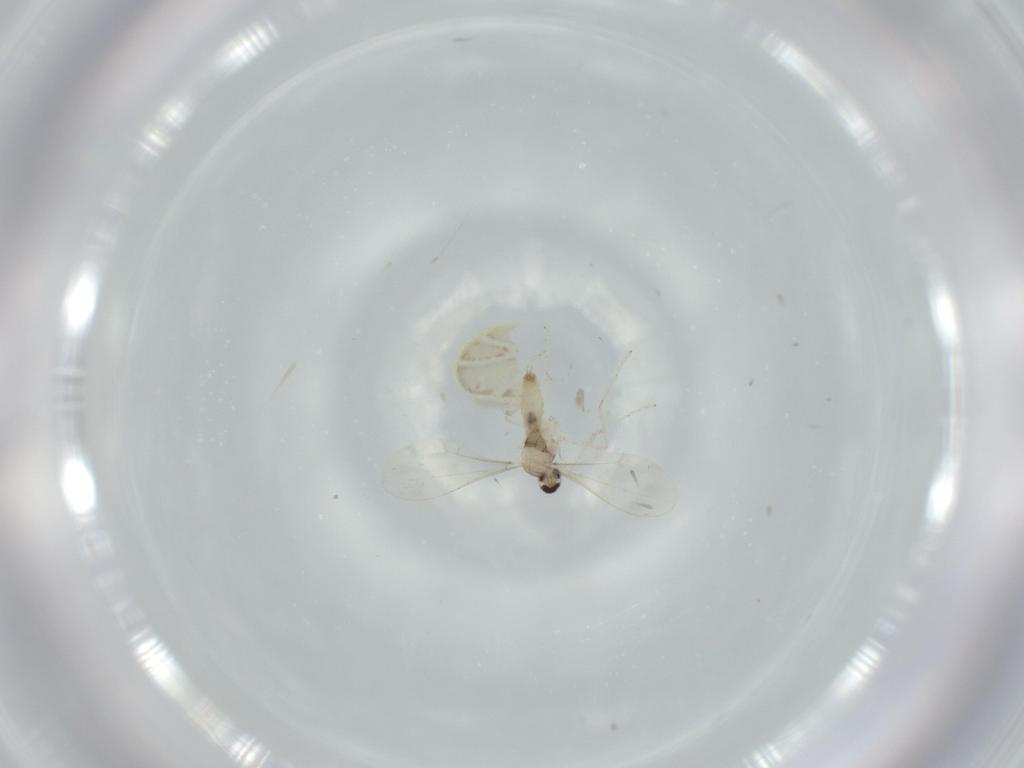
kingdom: Animalia
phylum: Arthropoda
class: Insecta
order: Diptera
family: Cecidomyiidae
